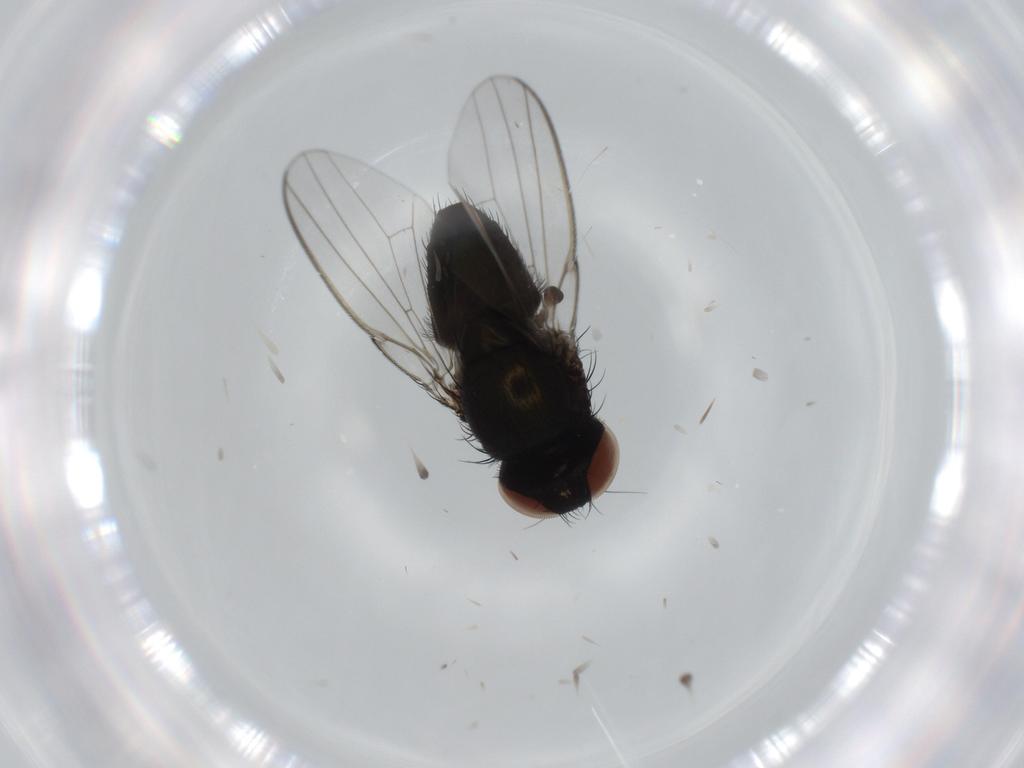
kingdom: Animalia
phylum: Arthropoda
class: Insecta
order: Diptera
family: Milichiidae
